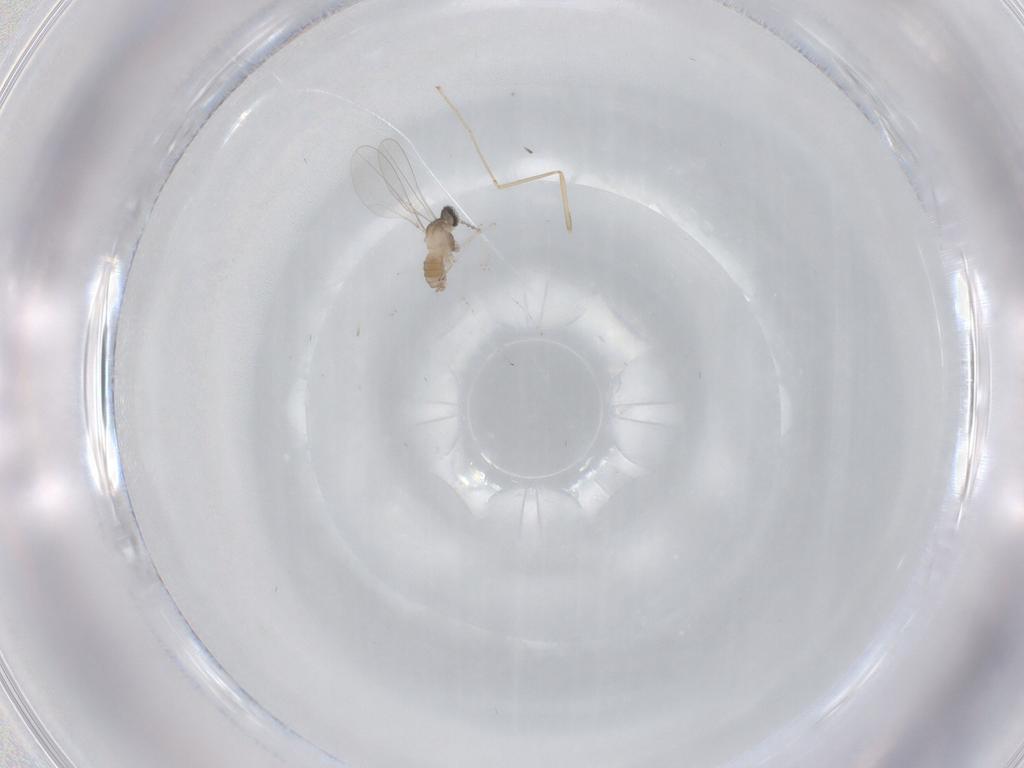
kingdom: Animalia
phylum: Arthropoda
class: Insecta
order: Diptera
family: Cecidomyiidae
